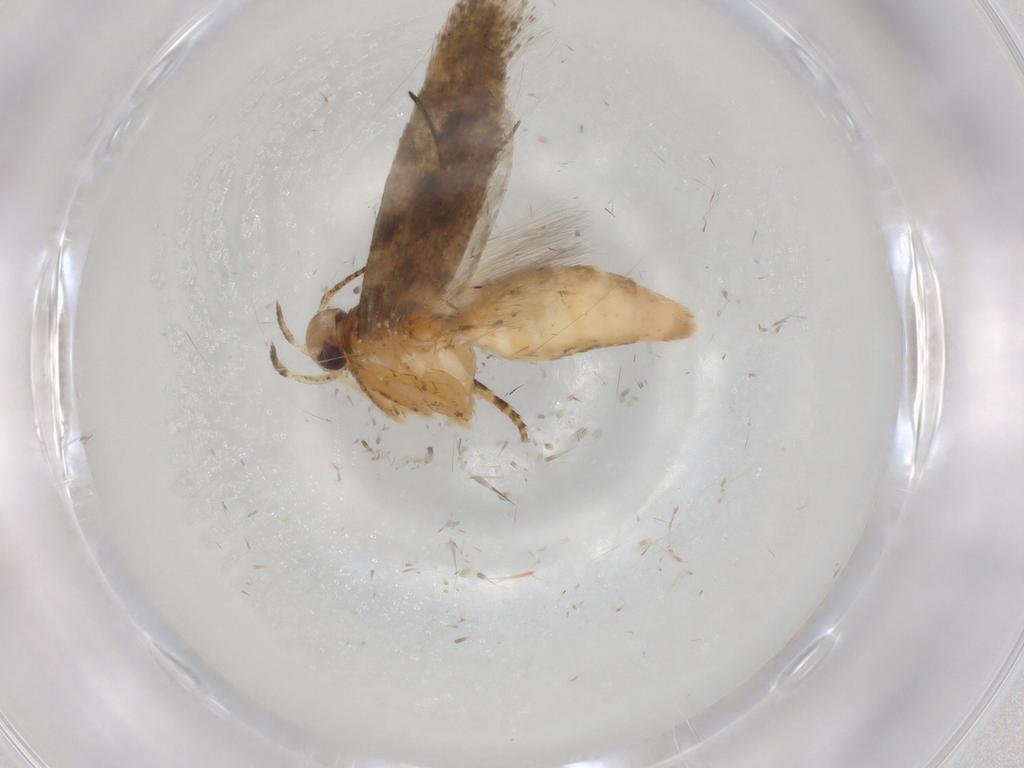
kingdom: Animalia
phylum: Arthropoda
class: Insecta
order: Lepidoptera
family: Gelechiidae
